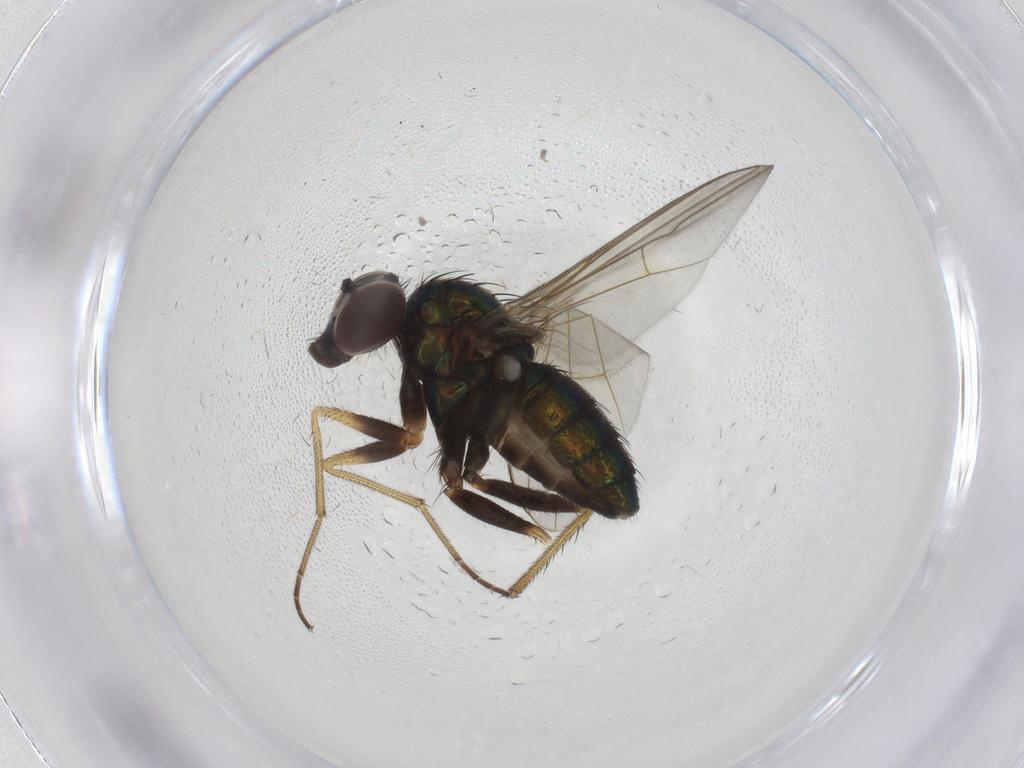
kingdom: Animalia
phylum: Arthropoda
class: Insecta
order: Diptera
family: Dolichopodidae
